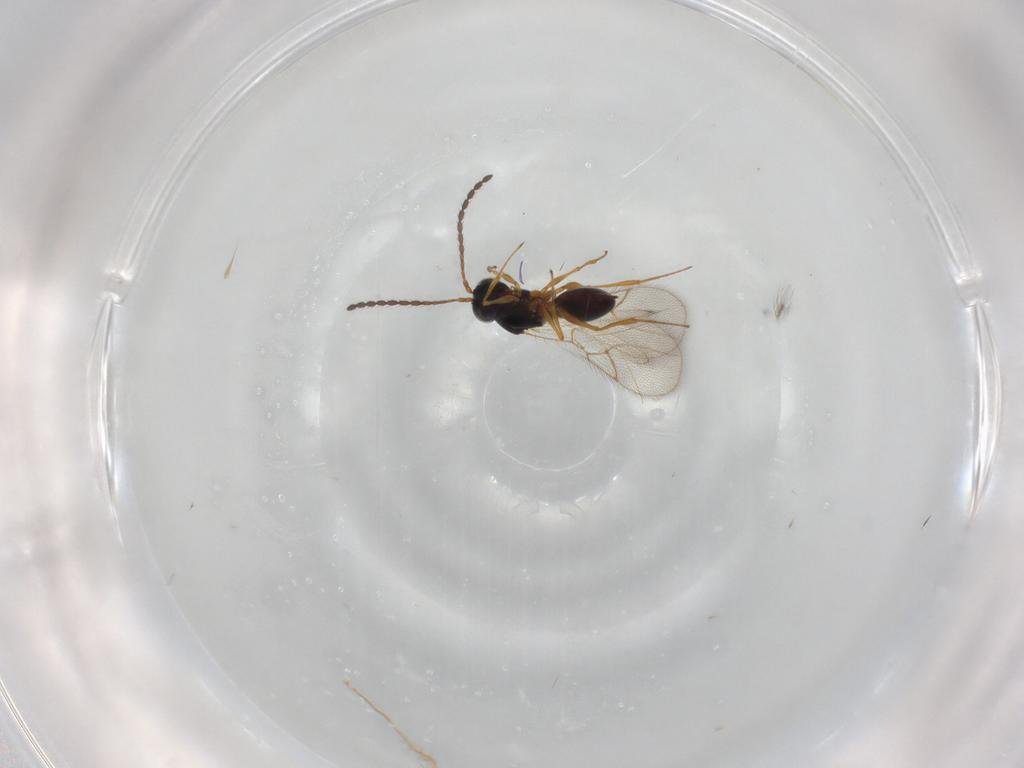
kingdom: Animalia
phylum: Arthropoda
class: Insecta
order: Hymenoptera
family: Figitidae
